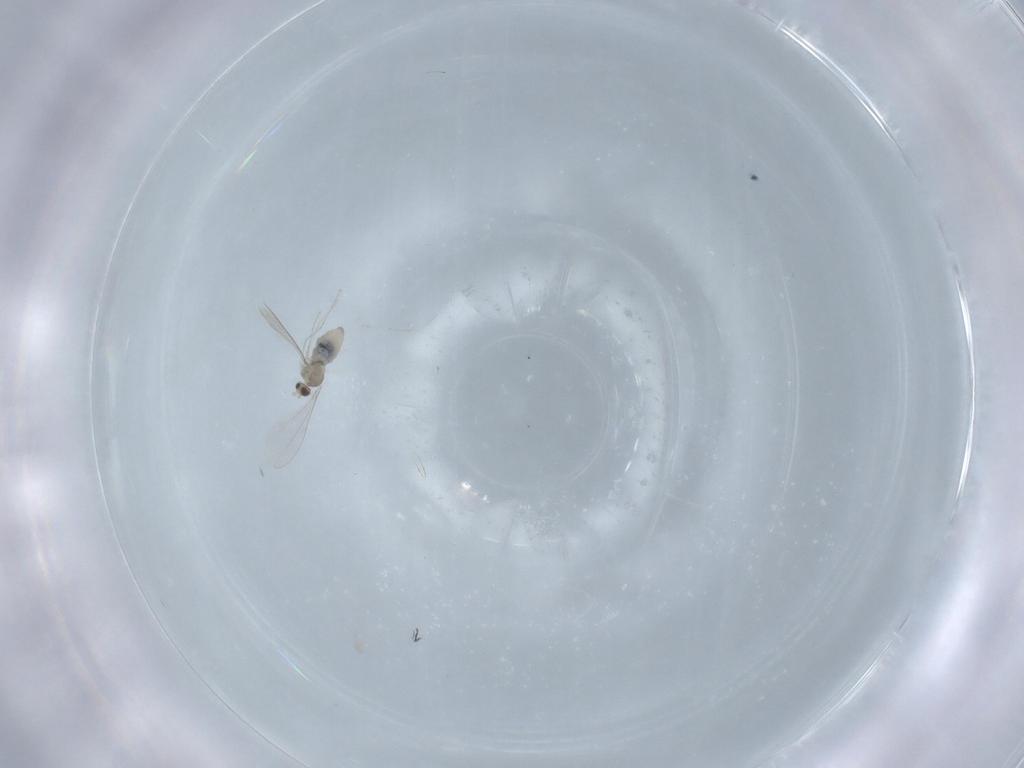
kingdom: Animalia
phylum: Arthropoda
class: Insecta
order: Diptera
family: Cecidomyiidae
